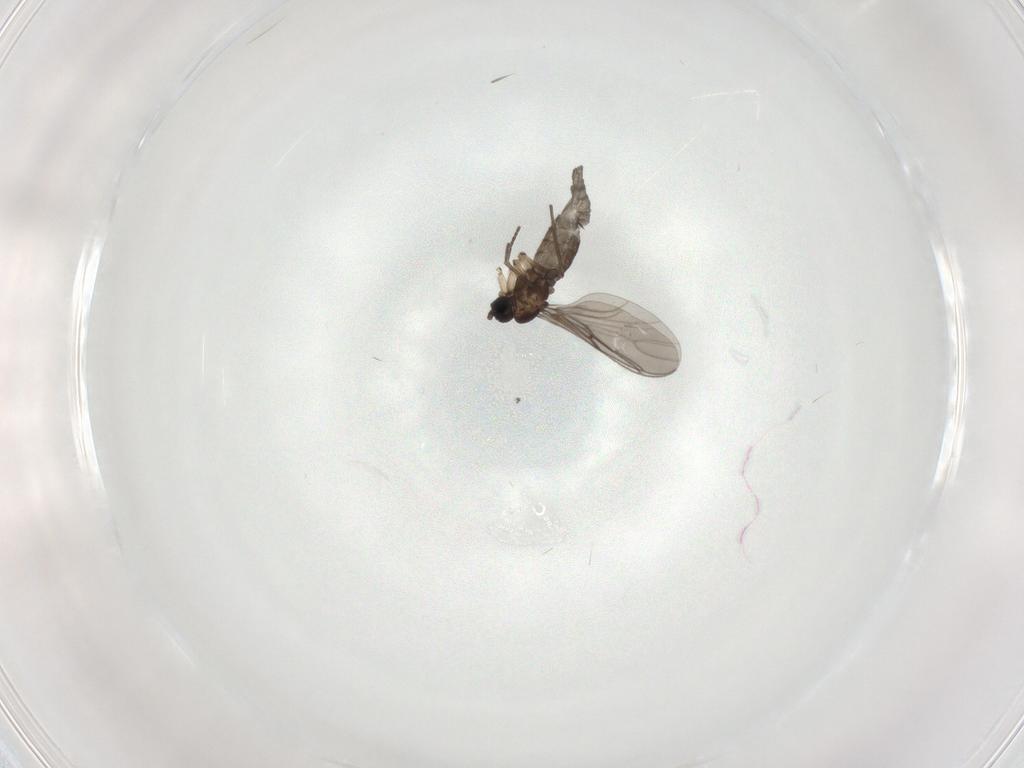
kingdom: Animalia
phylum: Arthropoda
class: Insecta
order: Diptera
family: Sciaridae
